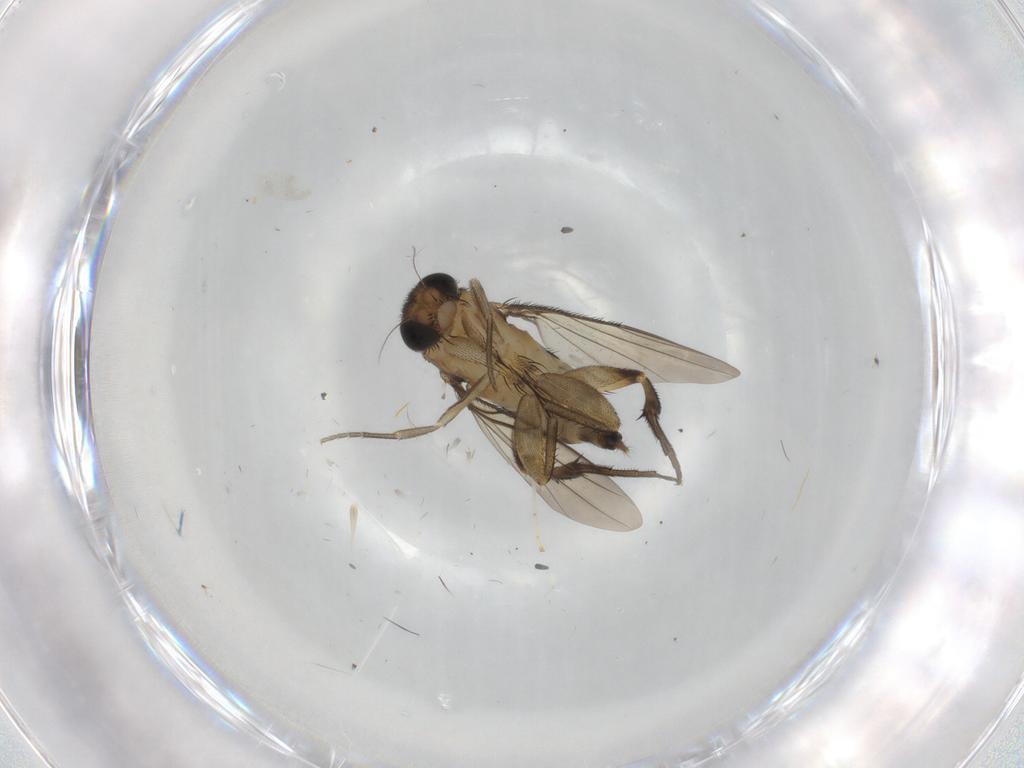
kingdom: Animalia
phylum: Arthropoda
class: Insecta
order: Diptera
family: Phoridae
